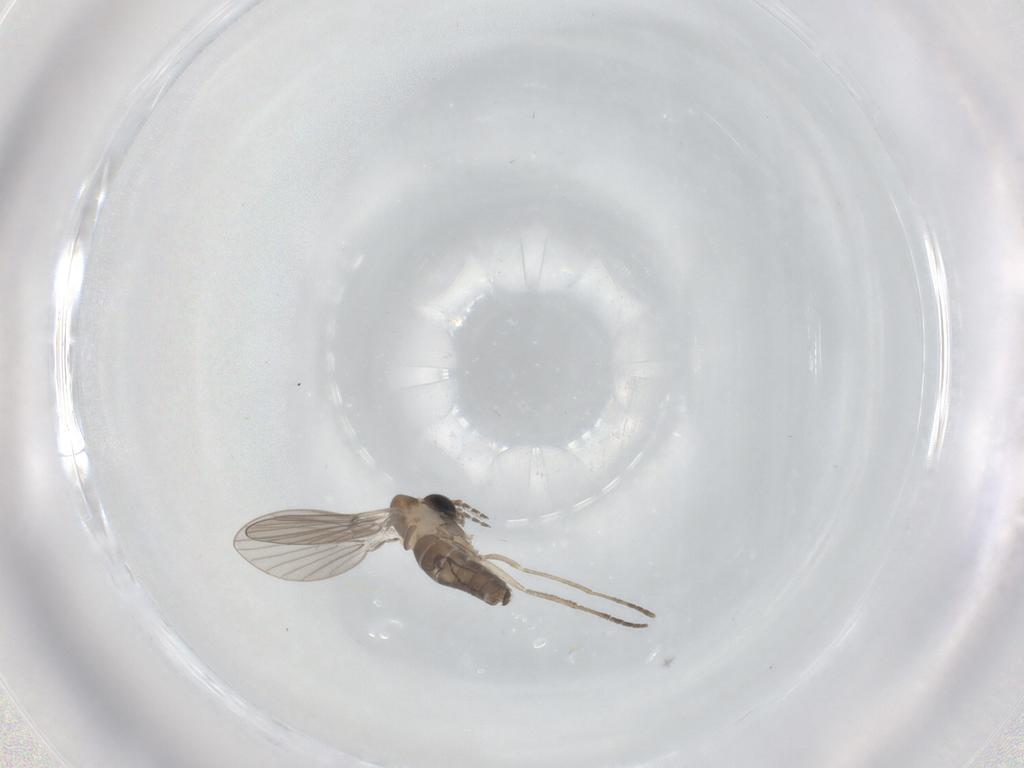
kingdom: Animalia
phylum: Arthropoda
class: Insecta
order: Diptera
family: Psychodidae
